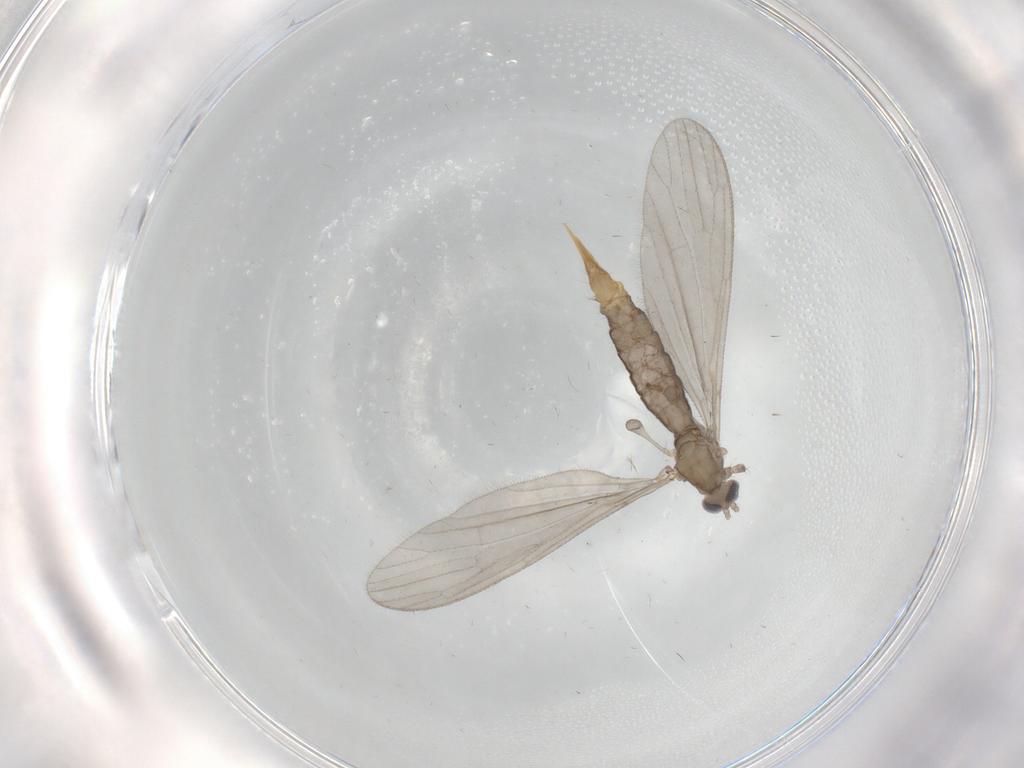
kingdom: Animalia
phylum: Arthropoda
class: Insecta
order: Diptera
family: Limoniidae
